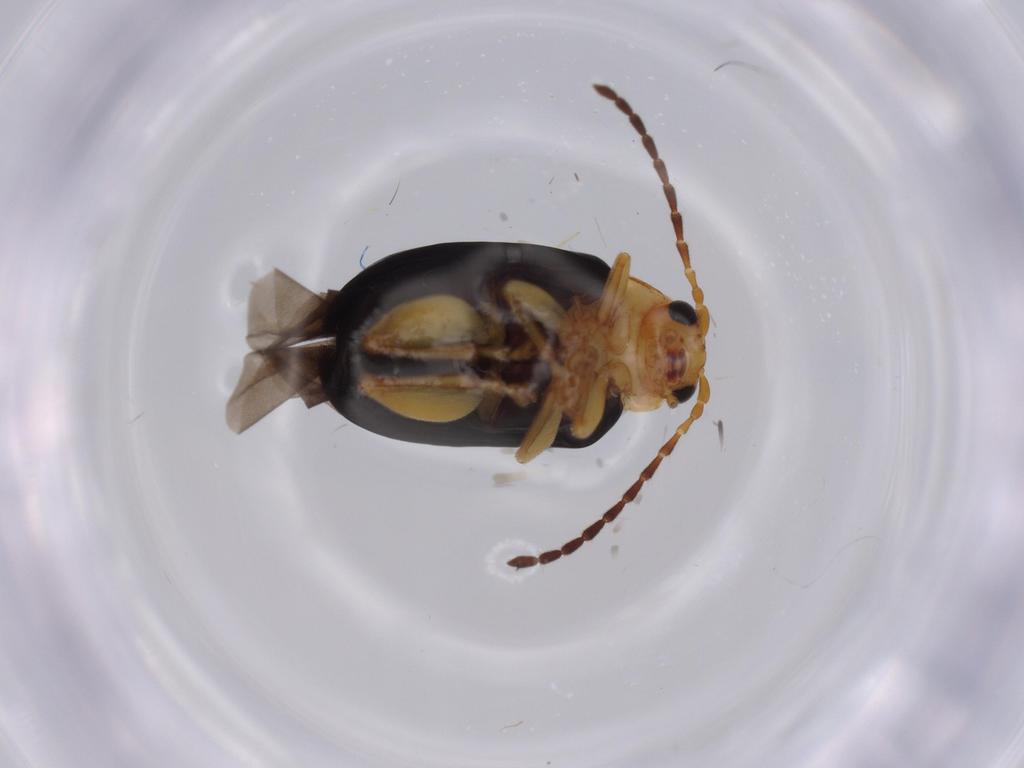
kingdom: Animalia
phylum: Arthropoda
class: Insecta
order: Coleoptera
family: Chrysomelidae
